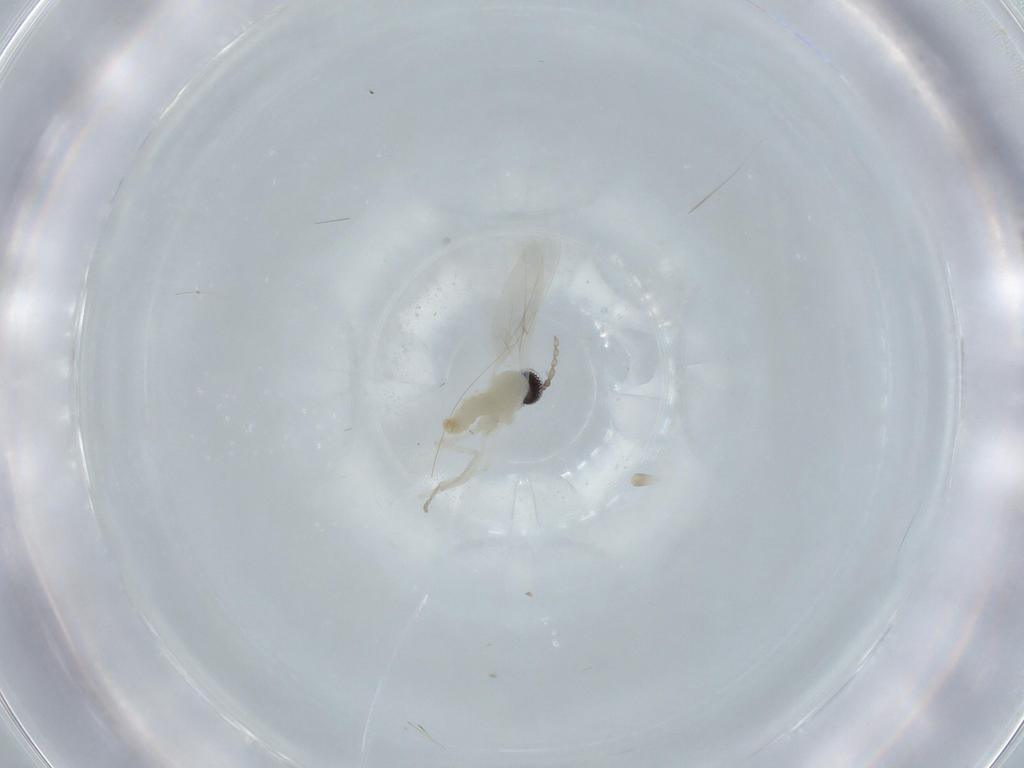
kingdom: Animalia
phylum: Arthropoda
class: Insecta
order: Diptera
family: Cecidomyiidae
